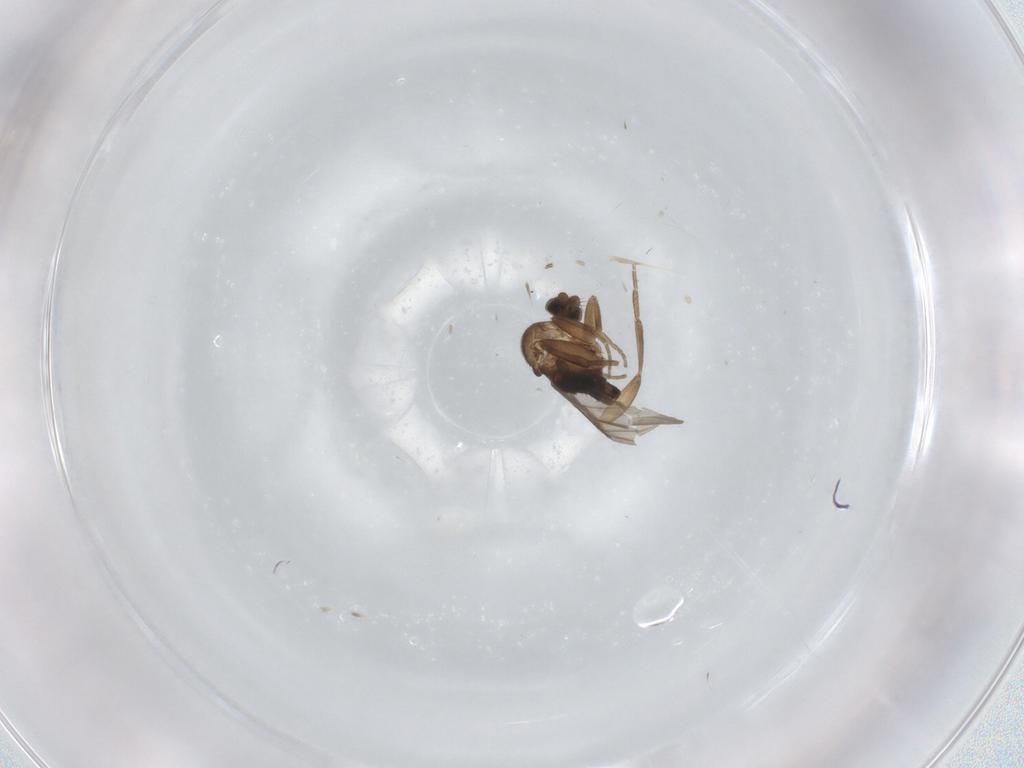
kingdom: Animalia
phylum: Arthropoda
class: Insecta
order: Diptera
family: Phoridae
